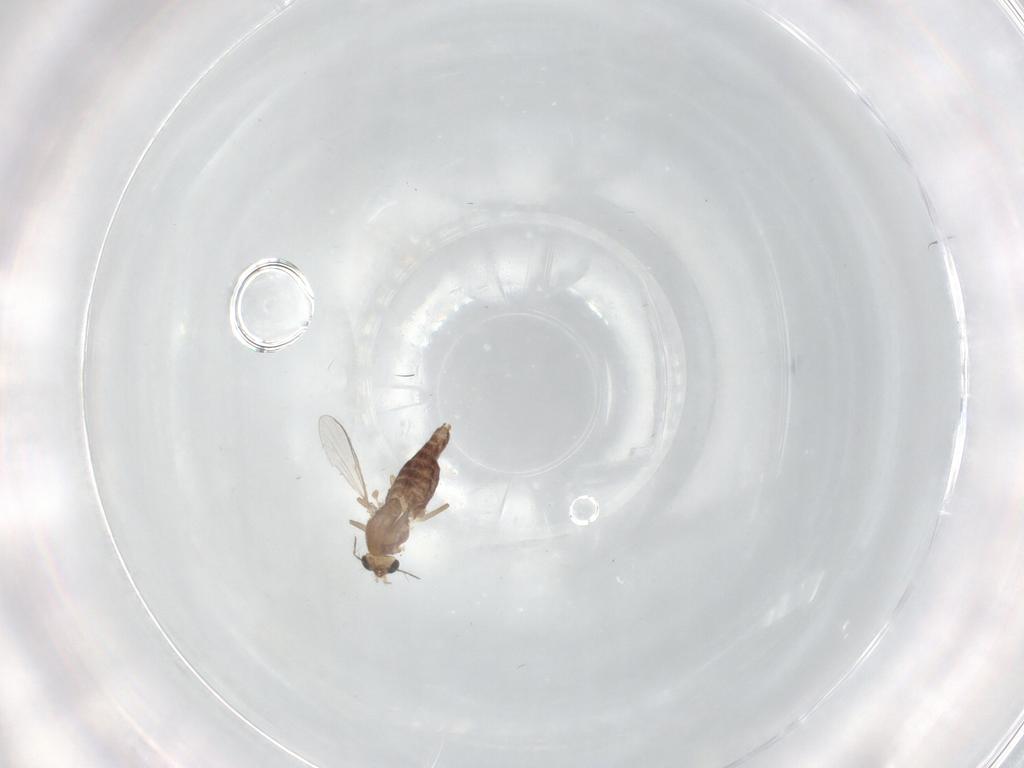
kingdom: Animalia
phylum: Arthropoda
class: Insecta
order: Diptera
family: Chironomidae
